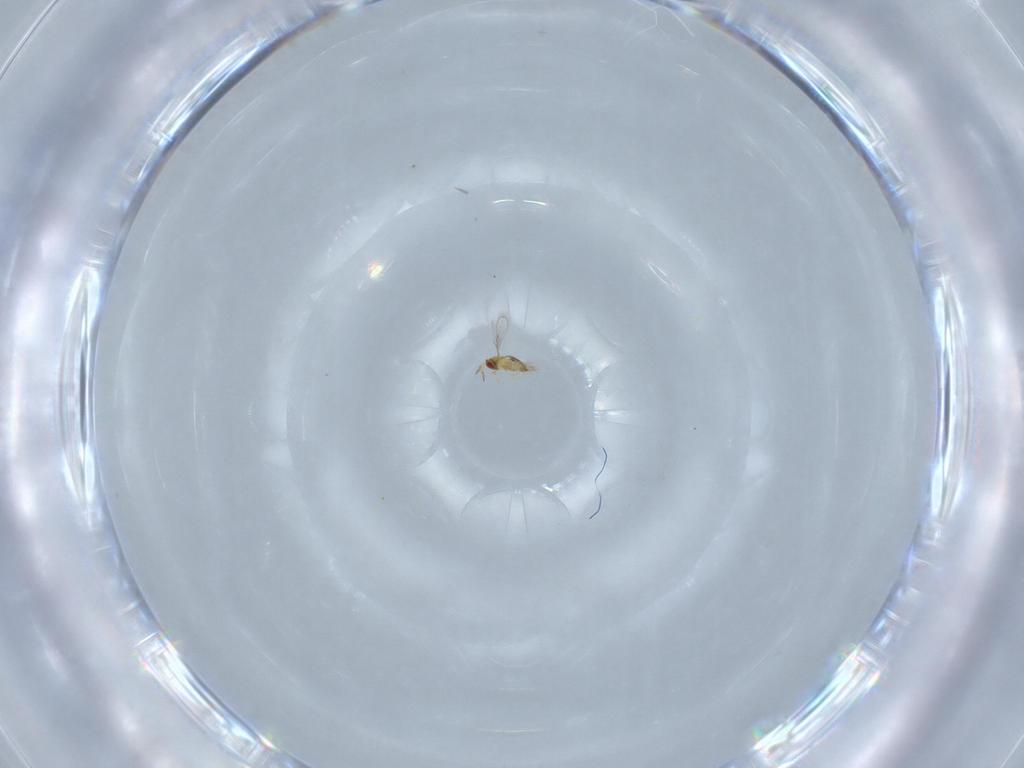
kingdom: Animalia
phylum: Arthropoda
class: Insecta
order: Hymenoptera
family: Trichogrammatidae
